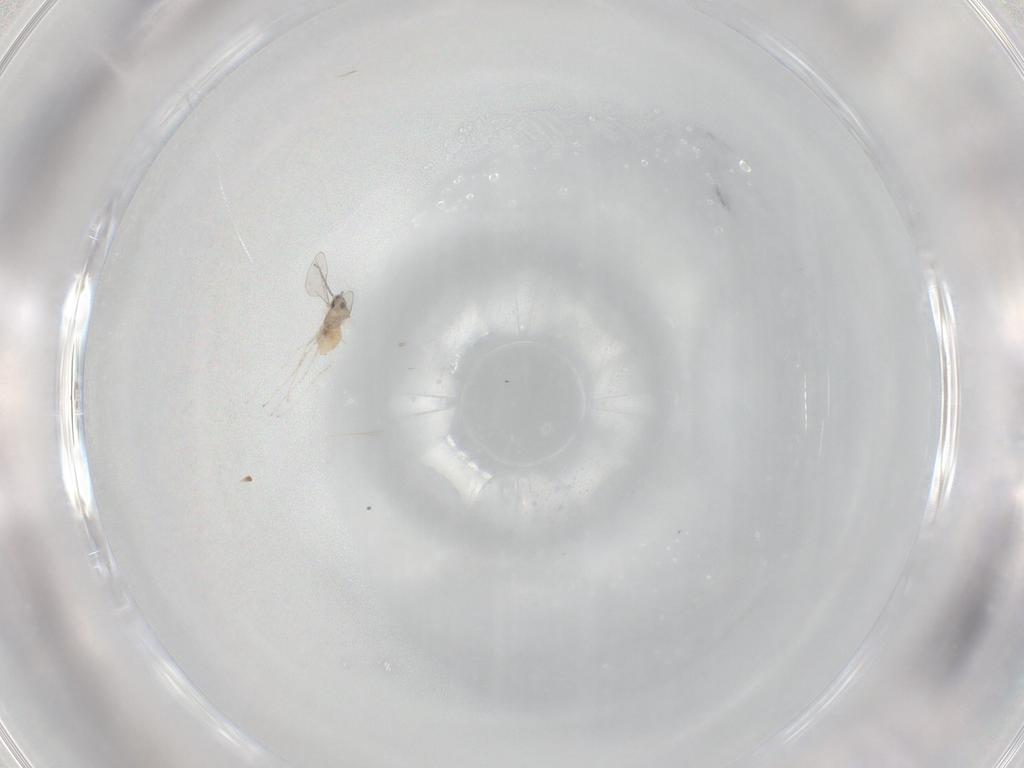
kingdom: Animalia
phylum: Arthropoda
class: Insecta
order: Diptera
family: Cecidomyiidae
